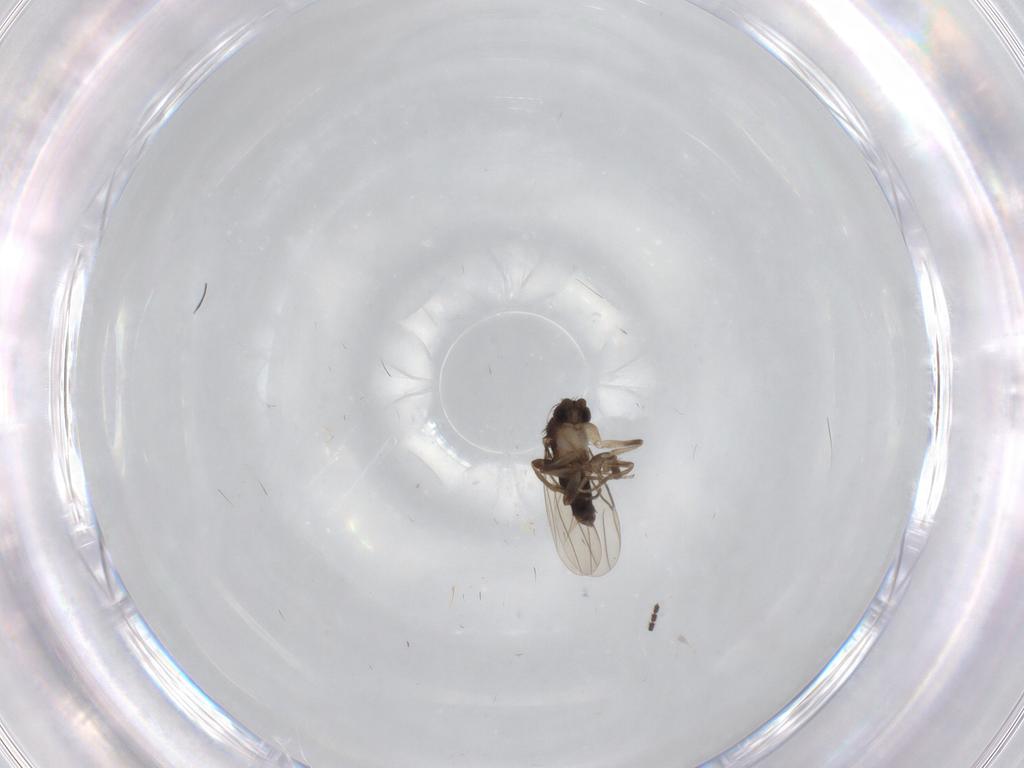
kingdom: Animalia
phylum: Arthropoda
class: Insecta
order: Diptera
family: Phoridae
